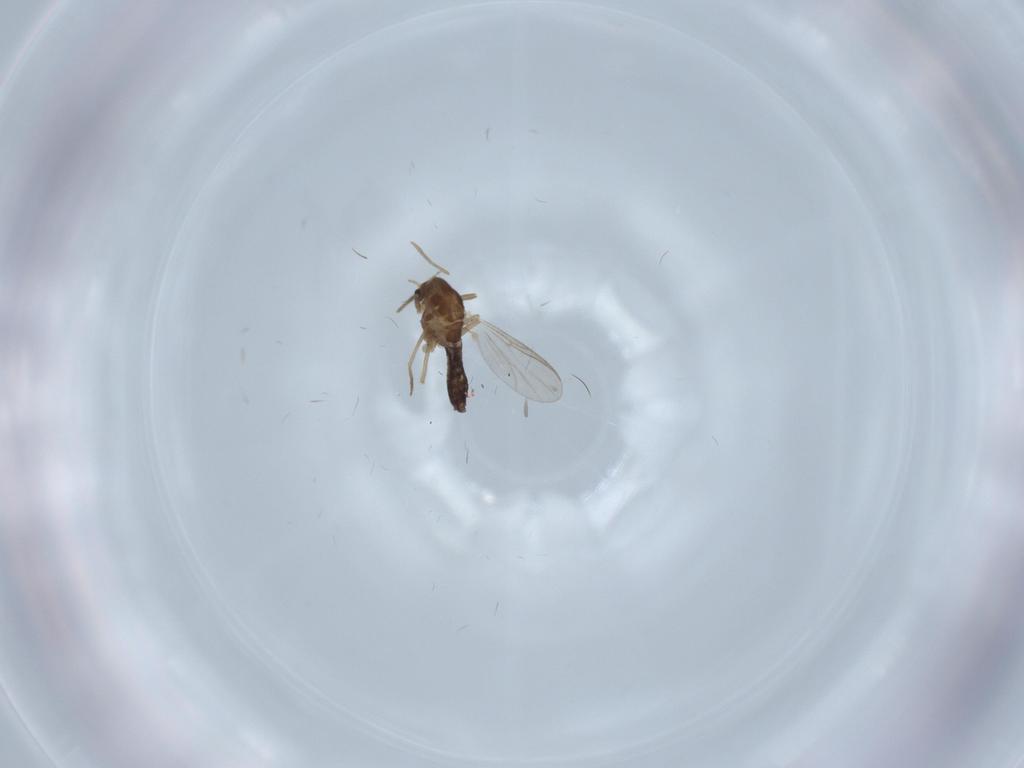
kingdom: Animalia
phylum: Arthropoda
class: Insecta
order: Diptera
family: Chironomidae
